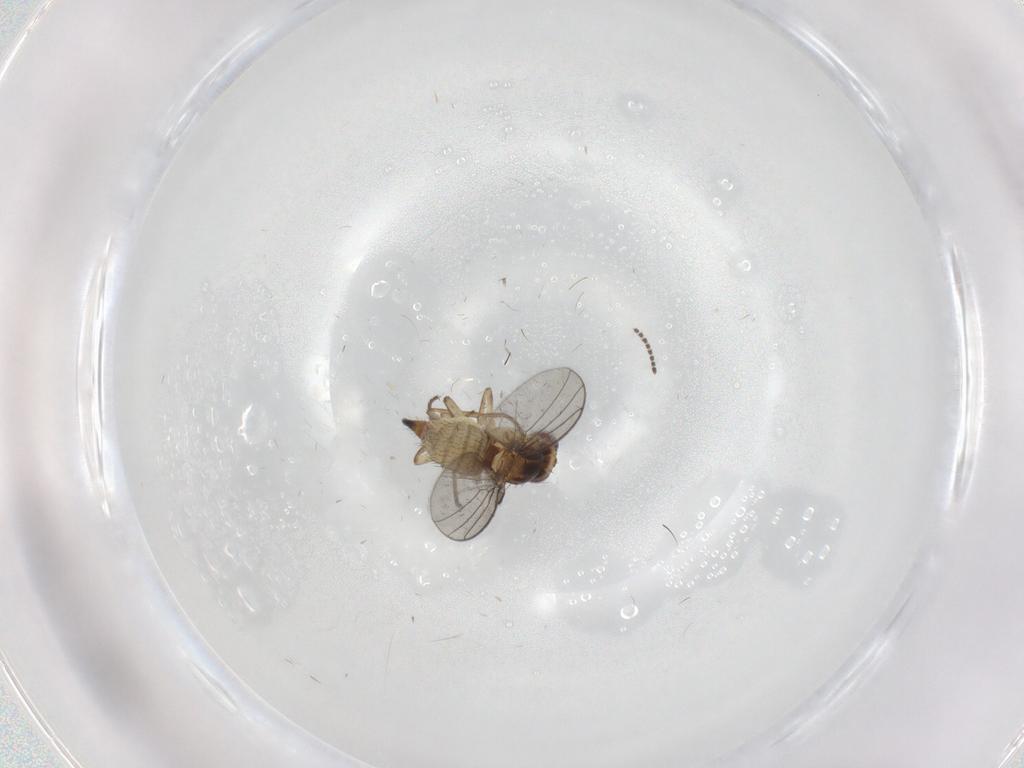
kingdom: Animalia
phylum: Arthropoda
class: Insecta
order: Diptera
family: Agromyzidae
